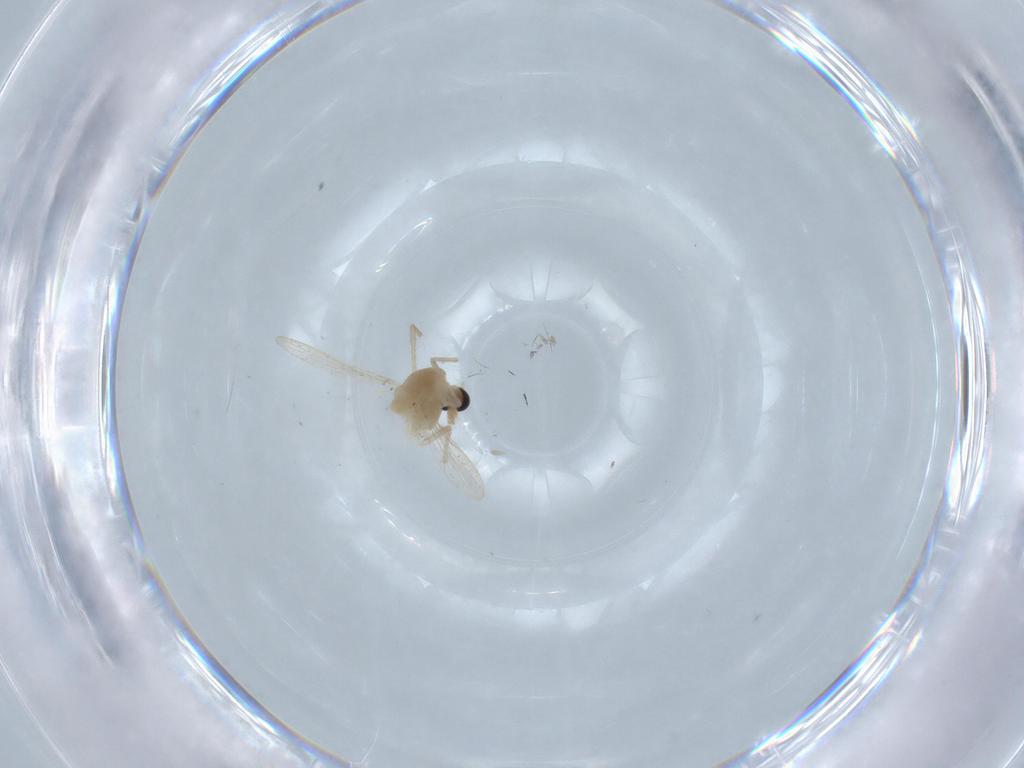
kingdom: Animalia
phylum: Arthropoda
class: Insecta
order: Diptera
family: Chironomidae
